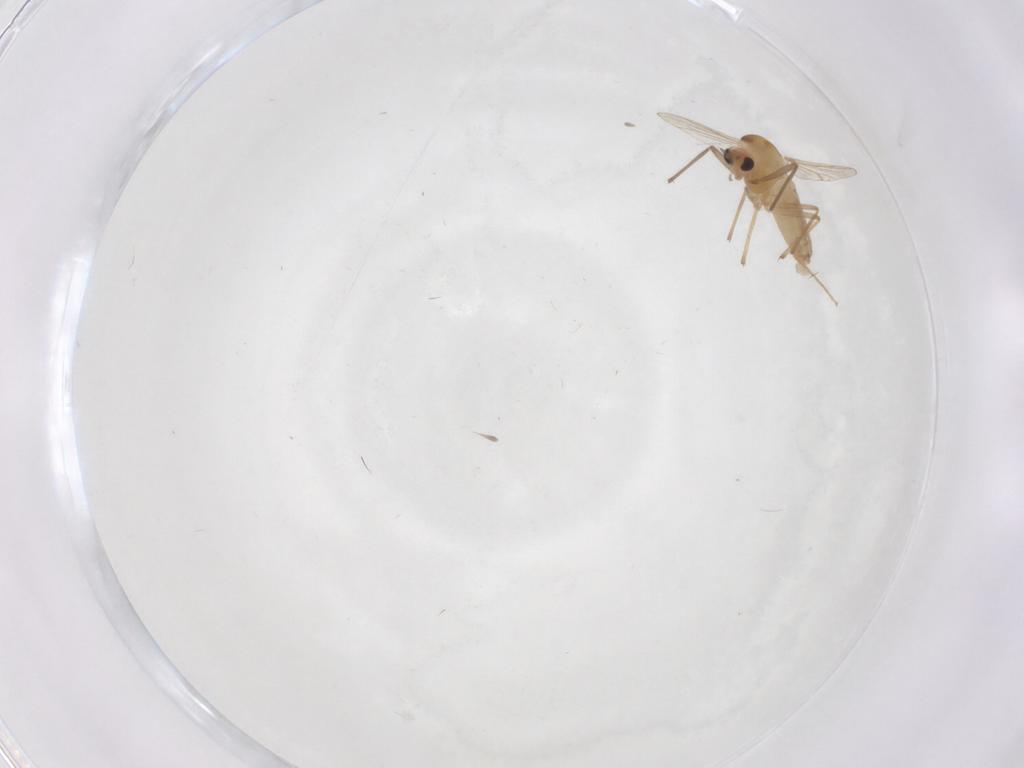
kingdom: Animalia
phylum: Arthropoda
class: Insecta
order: Diptera
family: Chironomidae
